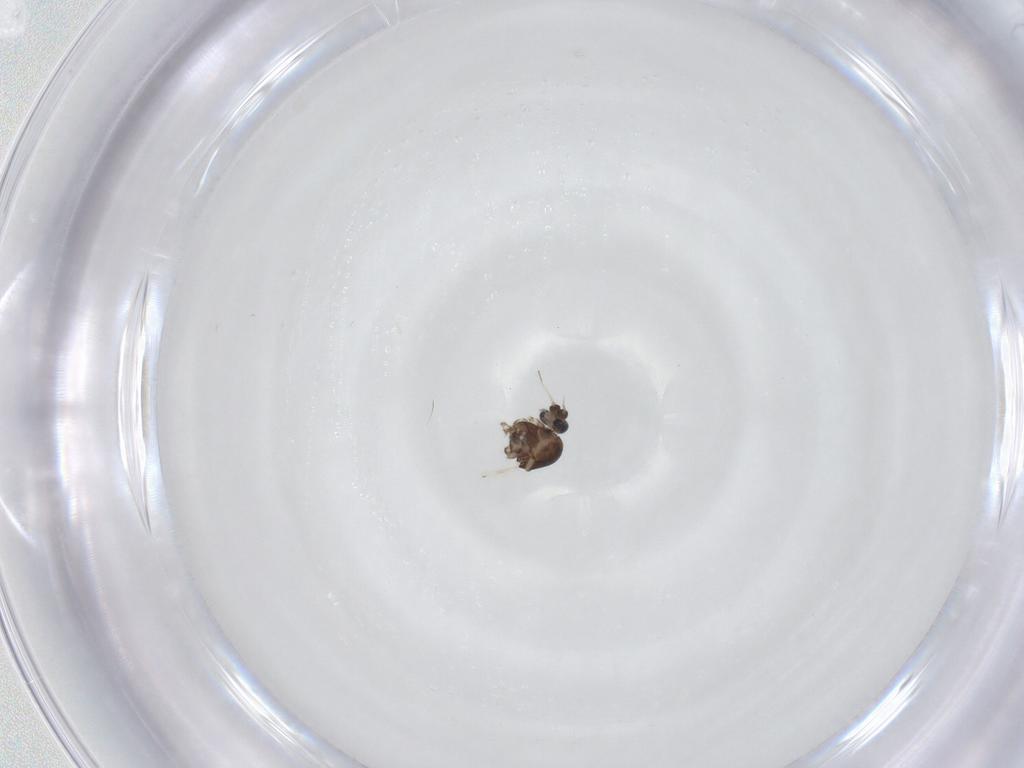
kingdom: Animalia
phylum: Arthropoda
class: Insecta
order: Diptera
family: Ceratopogonidae
